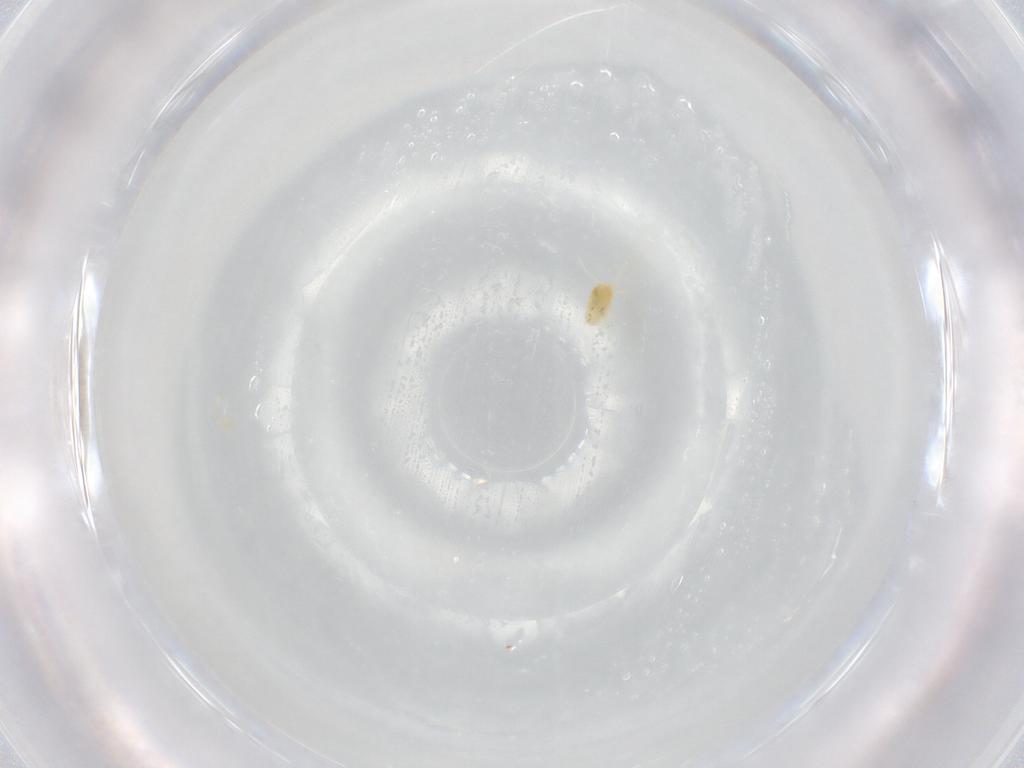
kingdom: Animalia
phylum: Arthropoda
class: Arachnida
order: Trombidiformes
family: Tetranychidae
